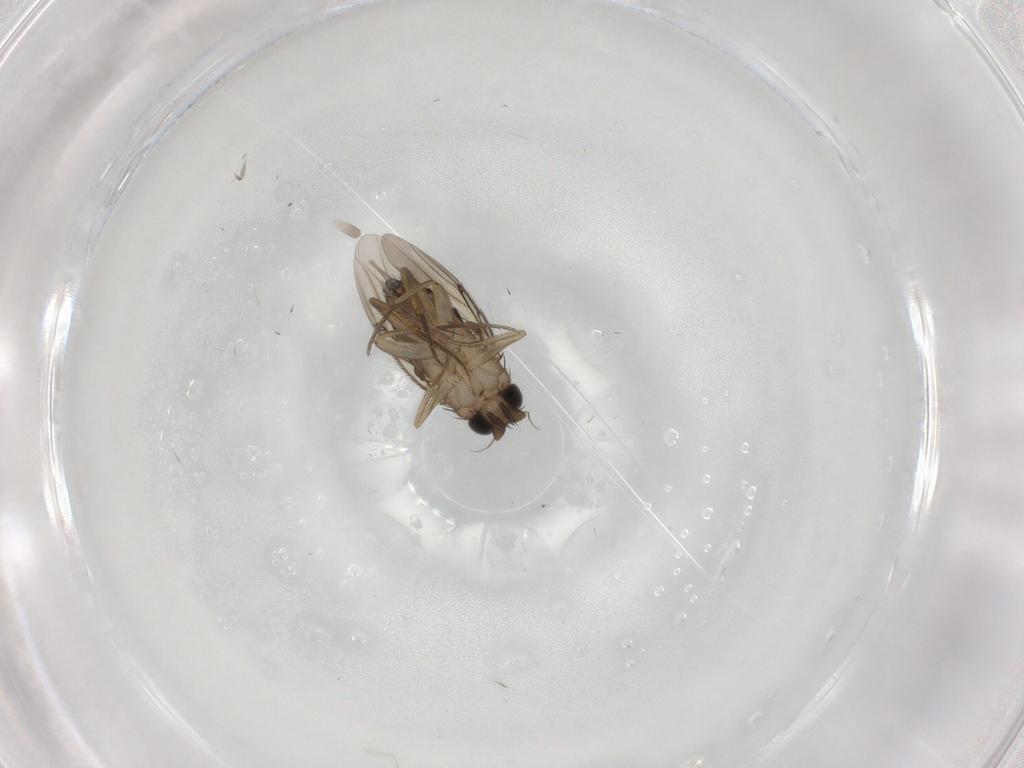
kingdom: Animalia
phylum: Arthropoda
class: Insecta
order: Diptera
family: Phoridae
